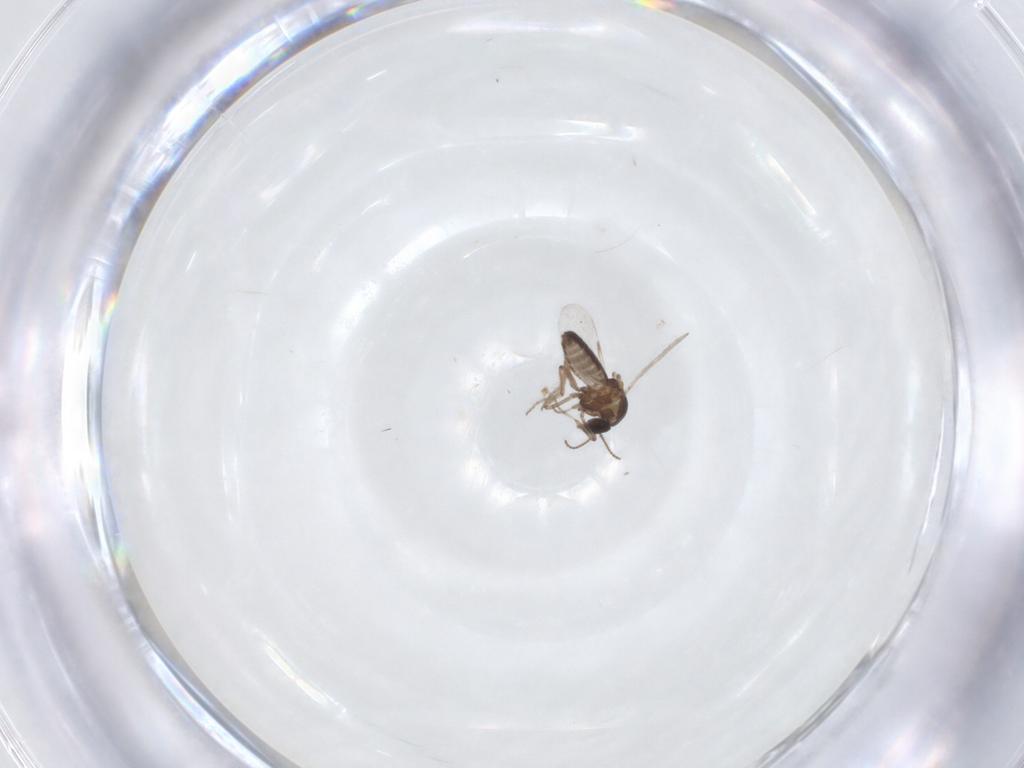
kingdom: Animalia
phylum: Arthropoda
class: Insecta
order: Diptera
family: Ceratopogonidae
